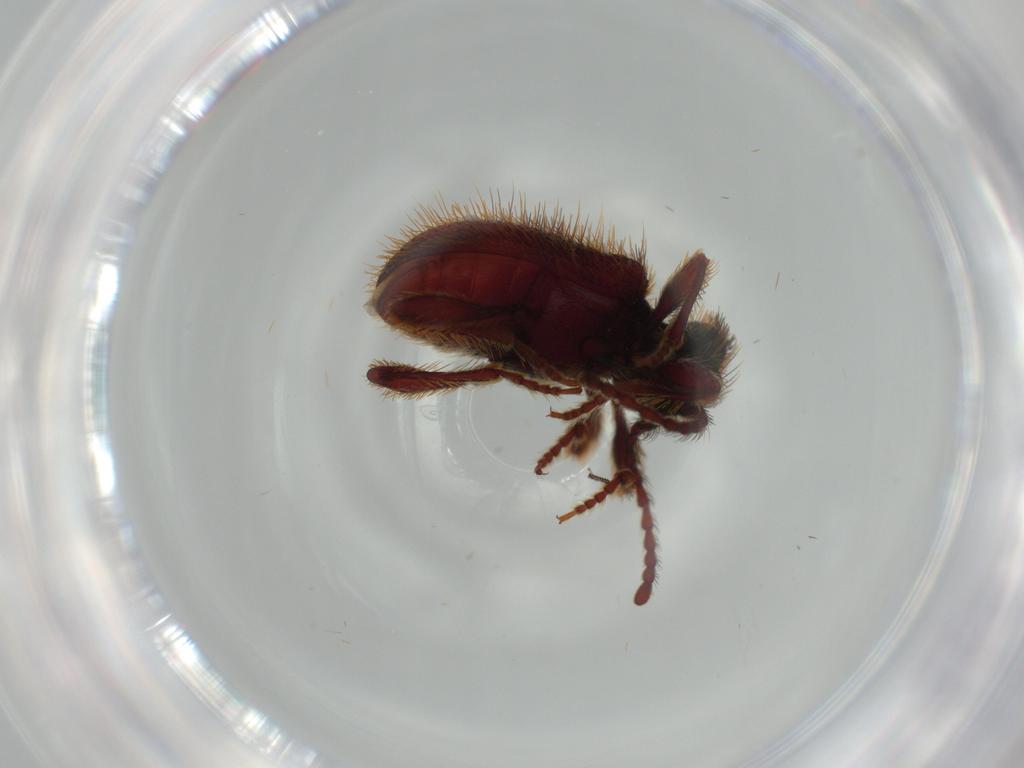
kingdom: Animalia
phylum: Arthropoda
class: Insecta
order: Coleoptera
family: Ptinidae
